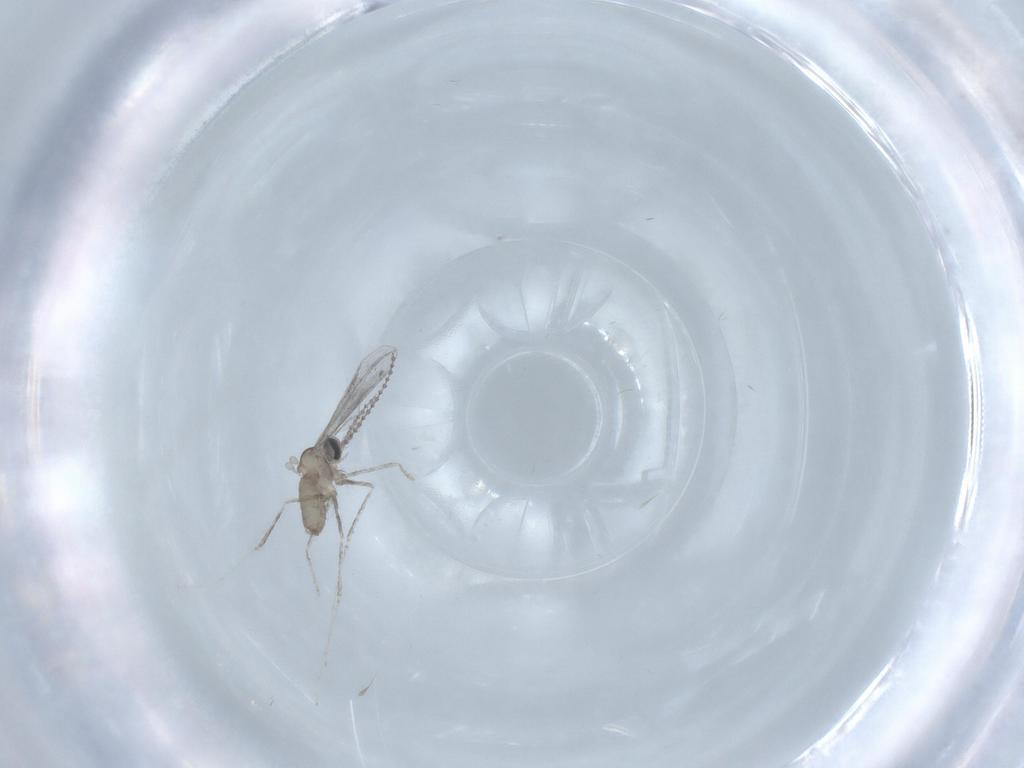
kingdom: Animalia
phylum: Arthropoda
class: Insecta
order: Diptera
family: Cecidomyiidae
